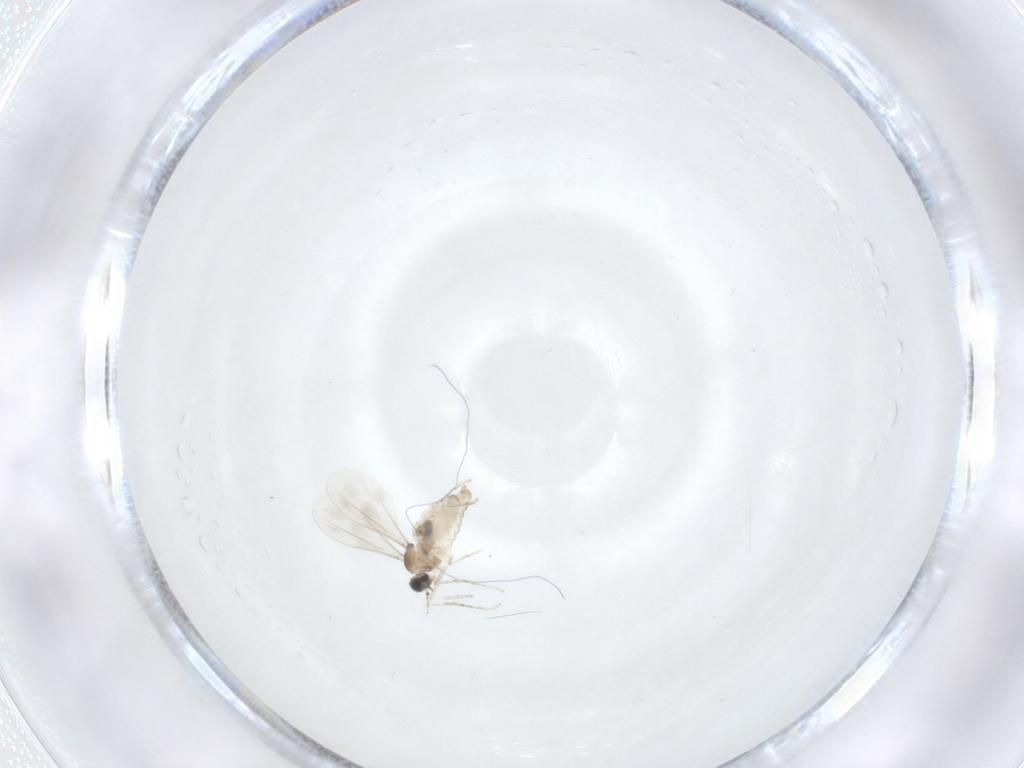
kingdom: Animalia
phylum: Arthropoda
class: Insecta
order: Diptera
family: Cecidomyiidae
